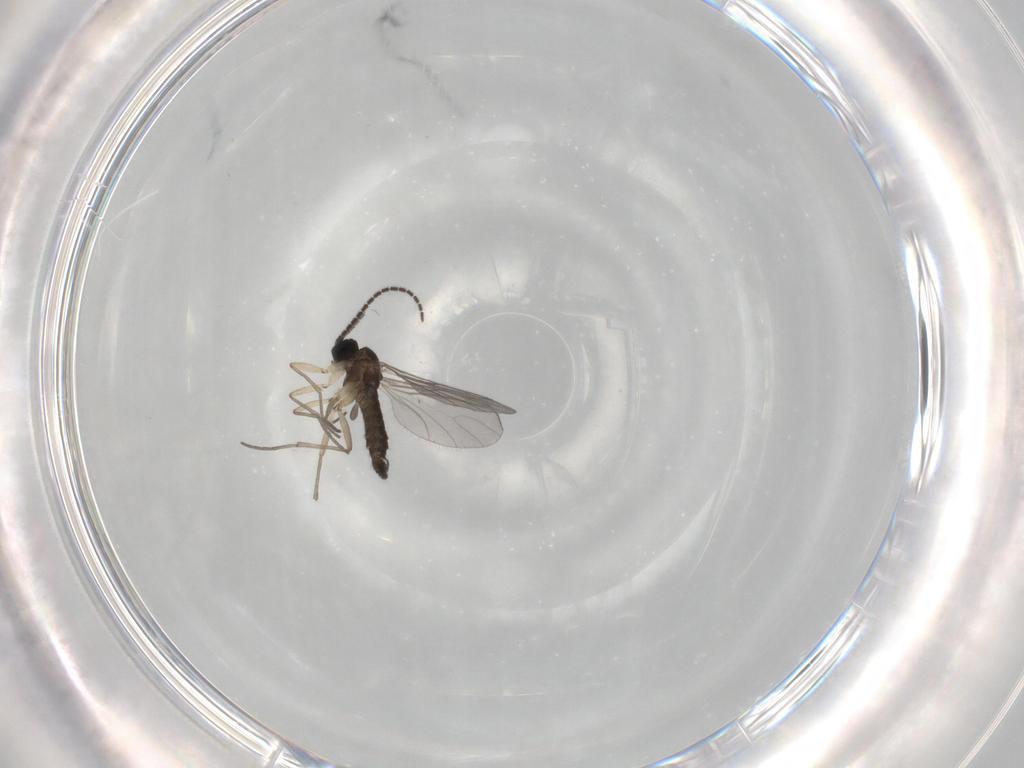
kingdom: Animalia
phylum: Arthropoda
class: Insecta
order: Diptera
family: Sciaridae
